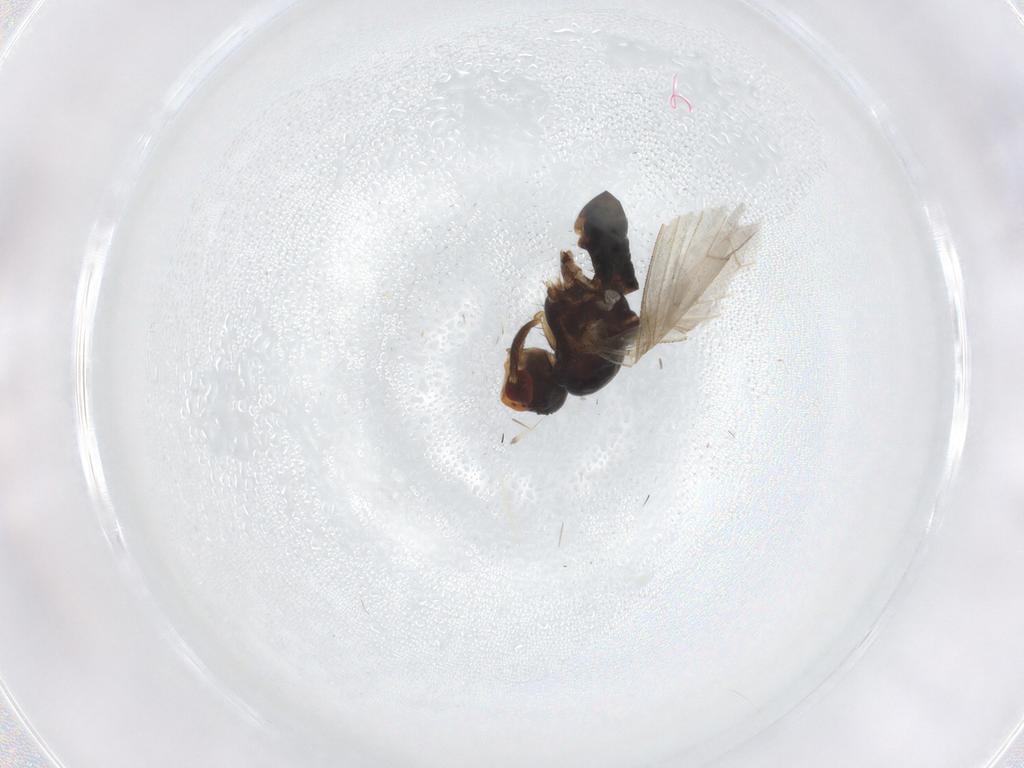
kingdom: Animalia
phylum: Arthropoda
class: Insecta
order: Diptera
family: Heleomyzidae
